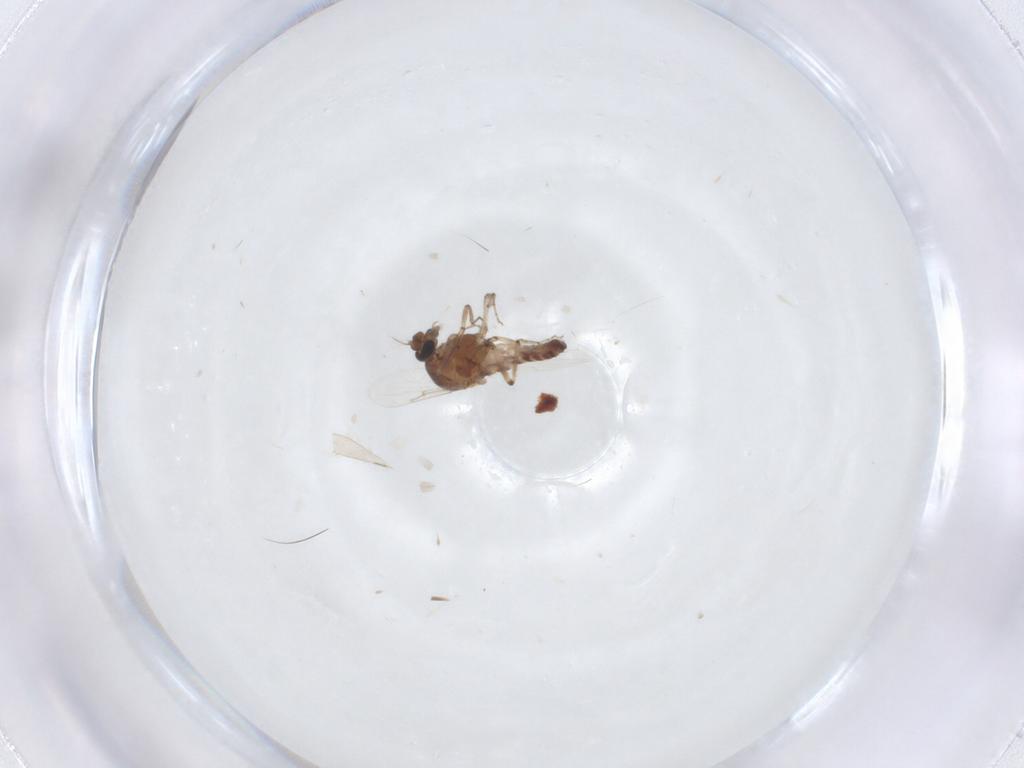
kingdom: Animalia
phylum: Arthropoda
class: Insecta
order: Diptera
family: Ceratopogonidae
